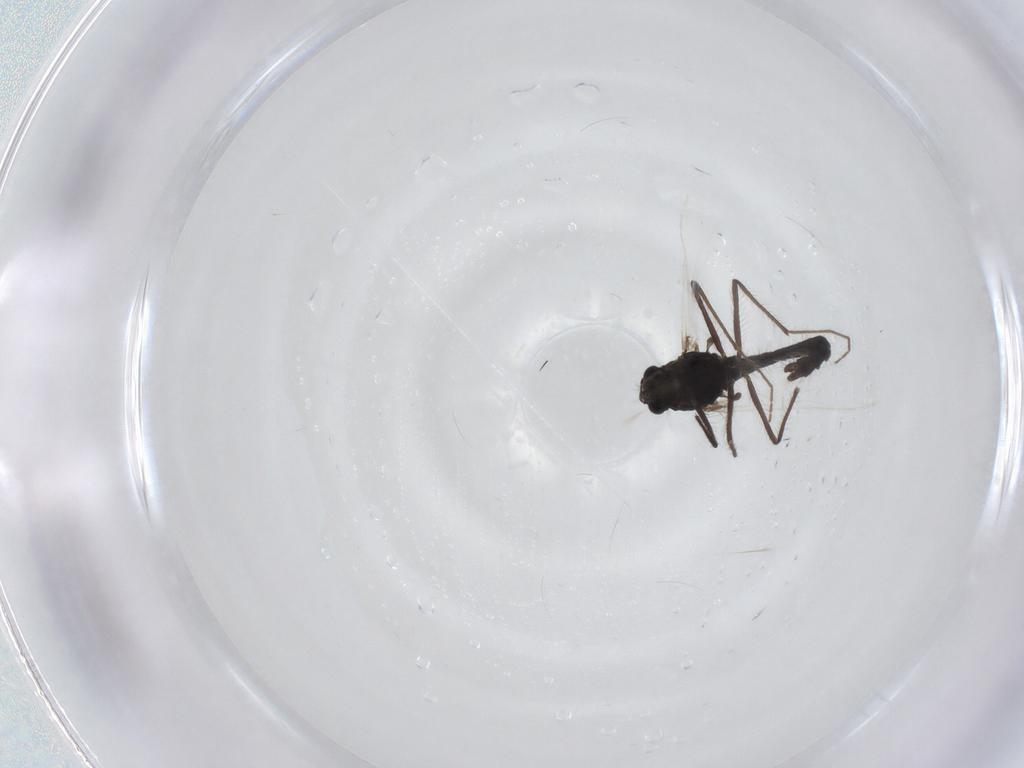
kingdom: Animalia
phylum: Arthropoda
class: Insecta
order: Diptera
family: Chironomidae
